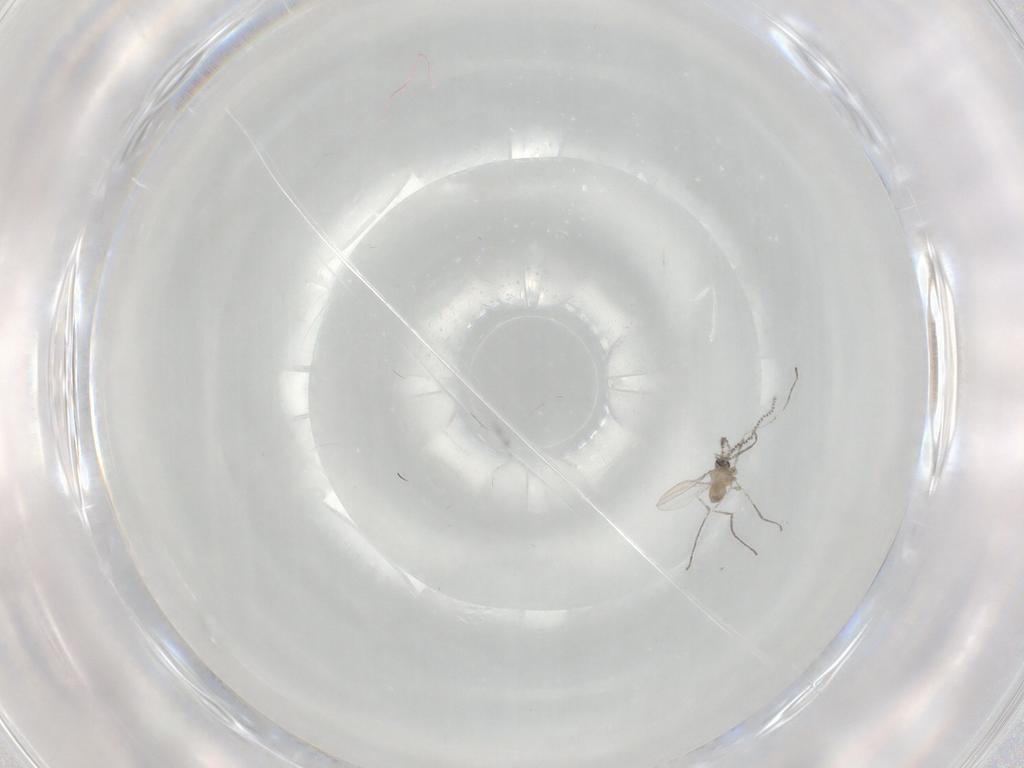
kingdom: Animalia
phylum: Arthropoda
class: Insecta
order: Diptera
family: Cecidomyiidae
